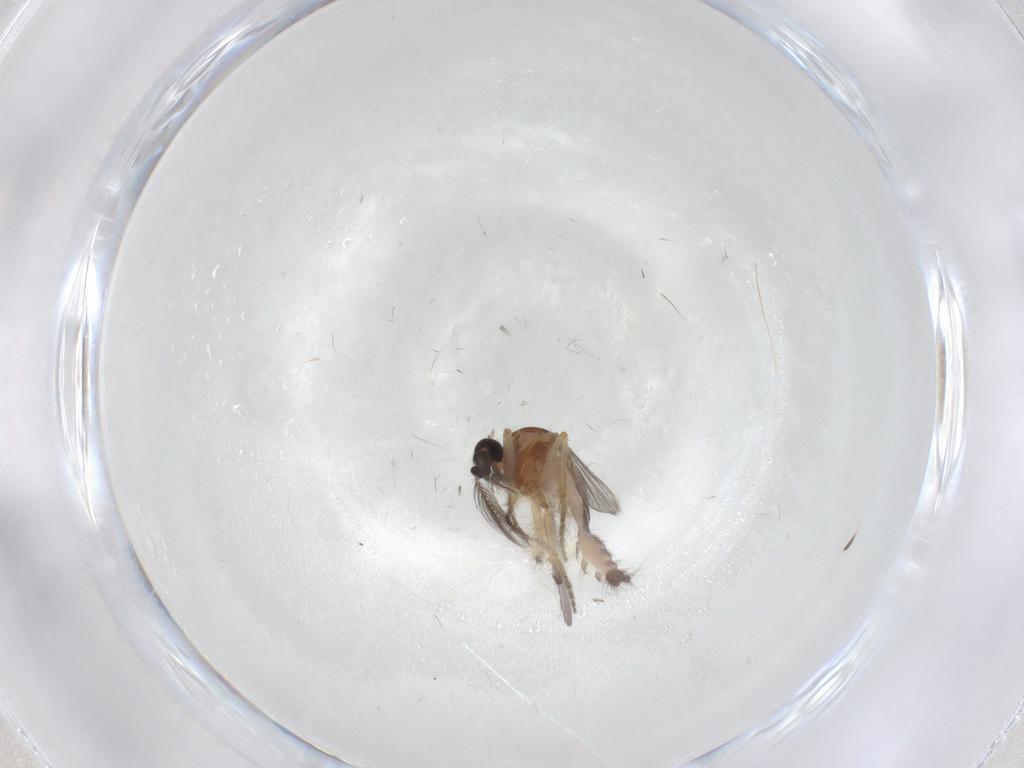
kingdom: Animalia
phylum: Arthropoda
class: Insecta
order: Diptera
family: Ceratopogonidae
